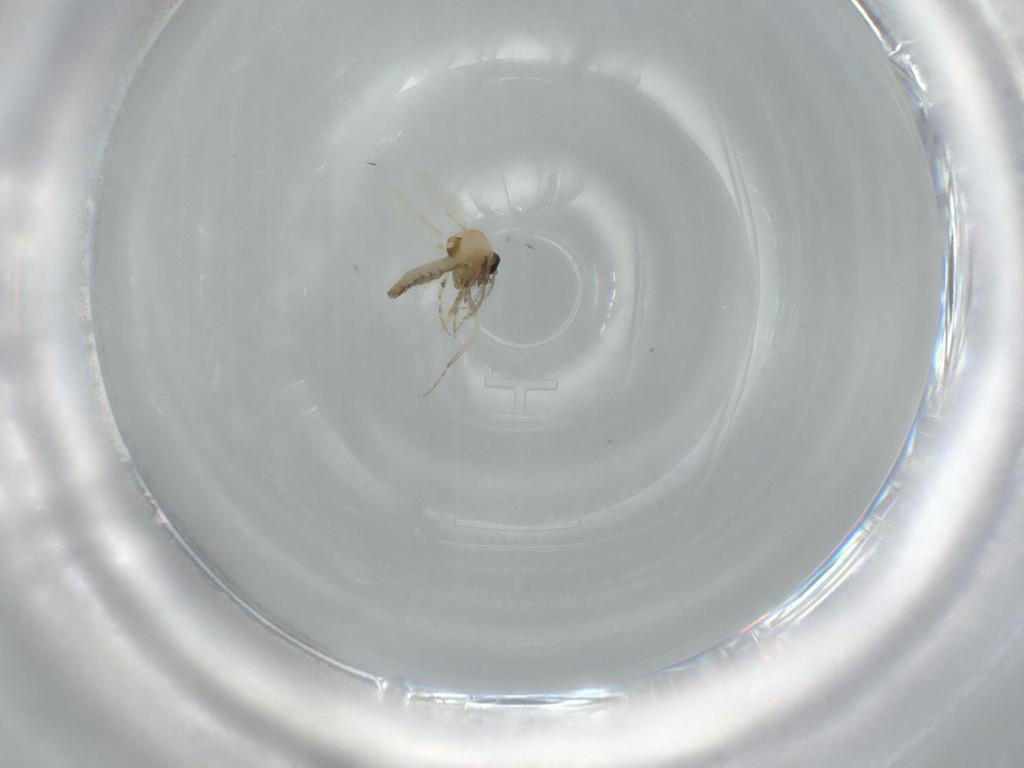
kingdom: Animalia
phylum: Arthropoda
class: Insecta
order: Diptera
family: Ceratopogonidae
